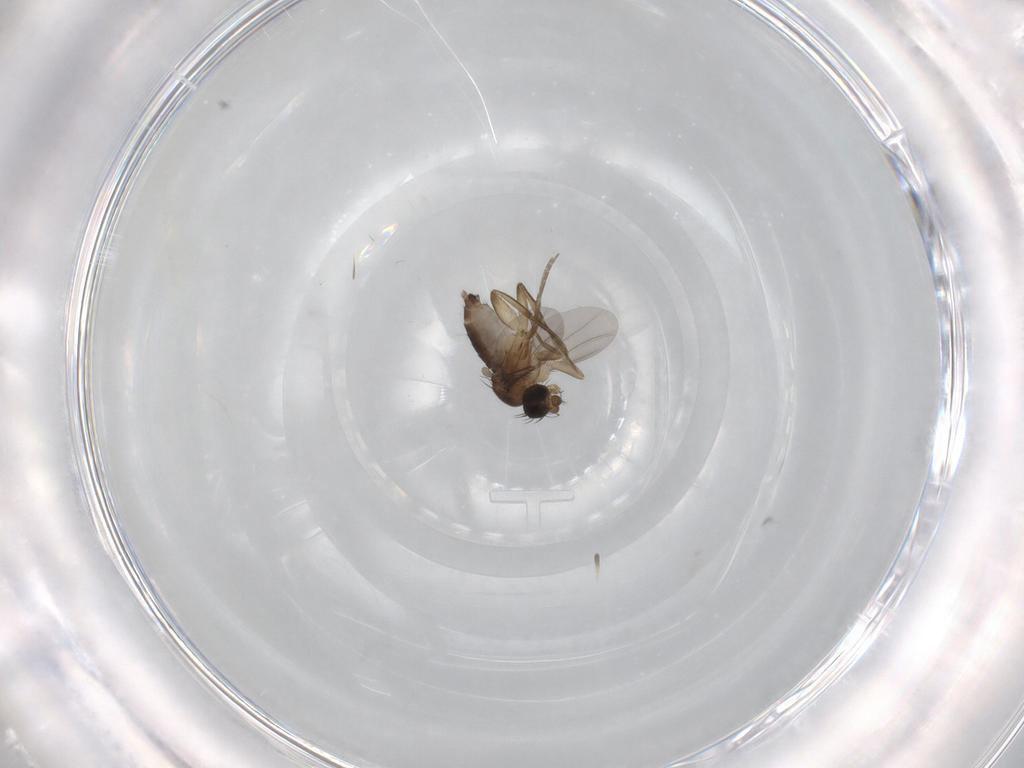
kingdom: Animalia
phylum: Arthropoda
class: Insecta
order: Diptera
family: Phoridae
